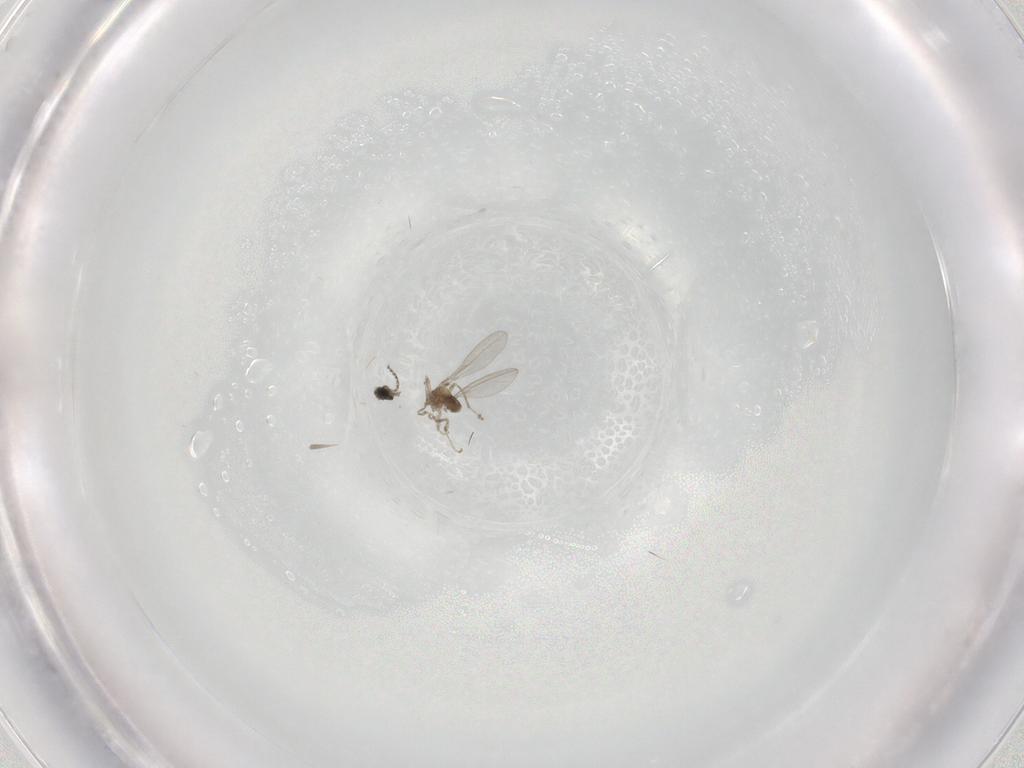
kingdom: Animalia
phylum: Arthropoda
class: Insecta
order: Diptera
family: Cecidomyiidae
